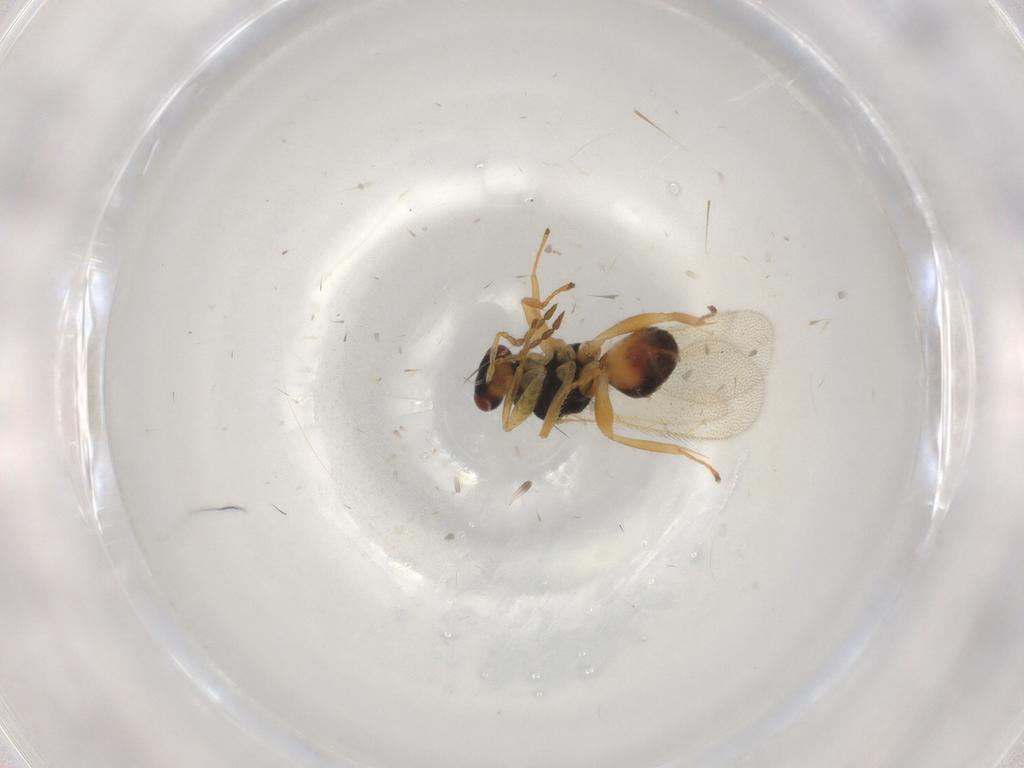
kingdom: Animalia
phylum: Arthropoda
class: Insecta
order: Hymenoptera
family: Eulophidae
